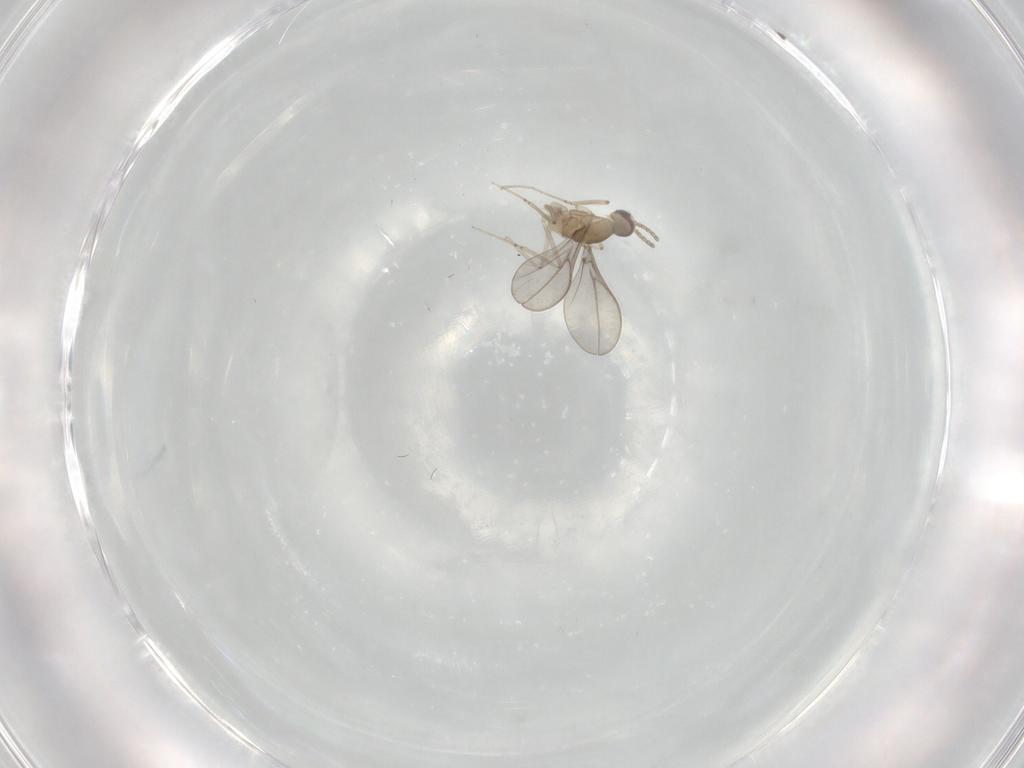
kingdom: Animalia
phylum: Arthropoda
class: Insecta
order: Diptera
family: Cecidomyiidae
